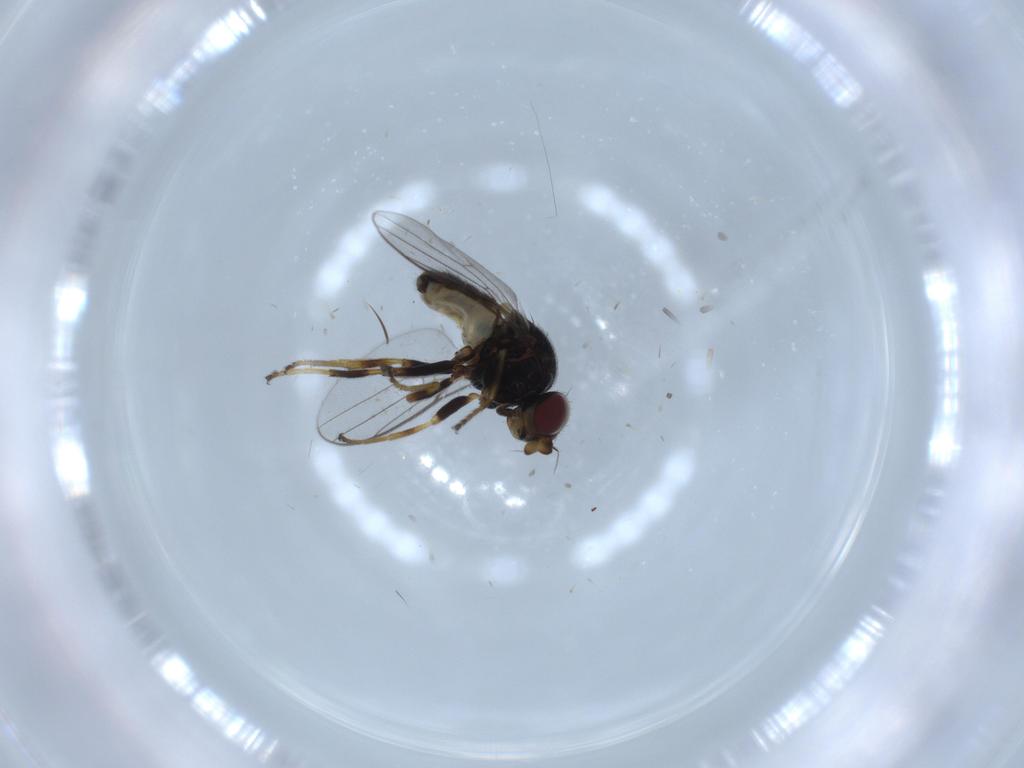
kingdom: Animalia
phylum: Arthropoda
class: Insecta
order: Diptera
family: Chloropidae
